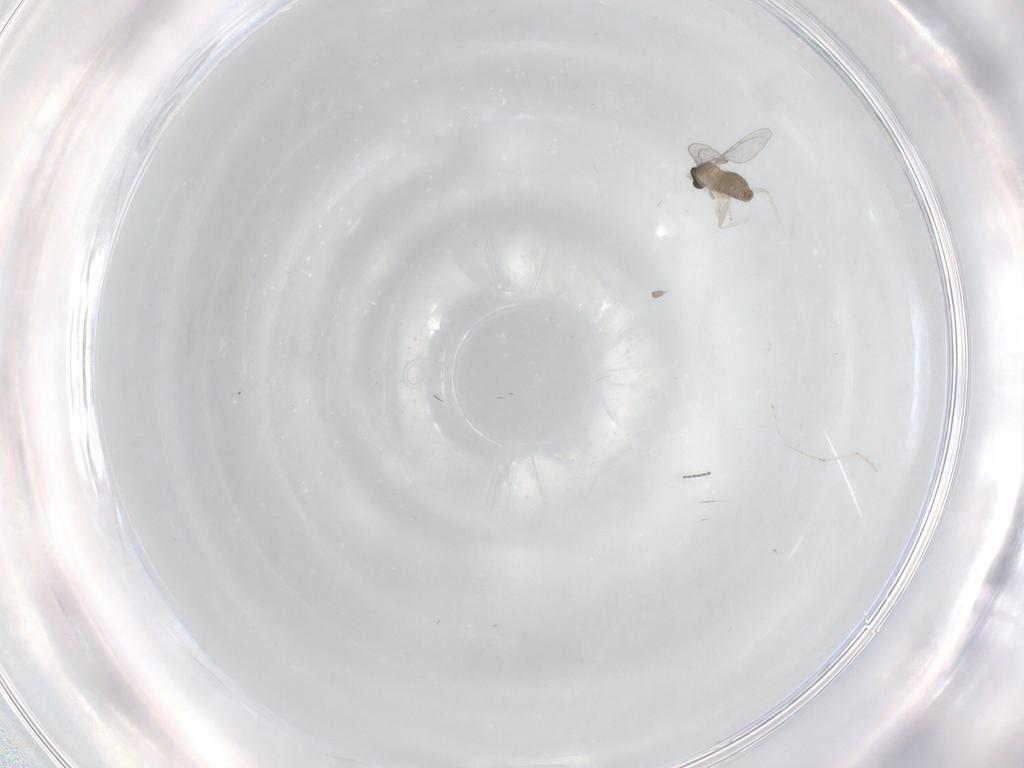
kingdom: Animalia
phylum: Arthropoda
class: Insecta
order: Diptera
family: Cecidomyiidae
